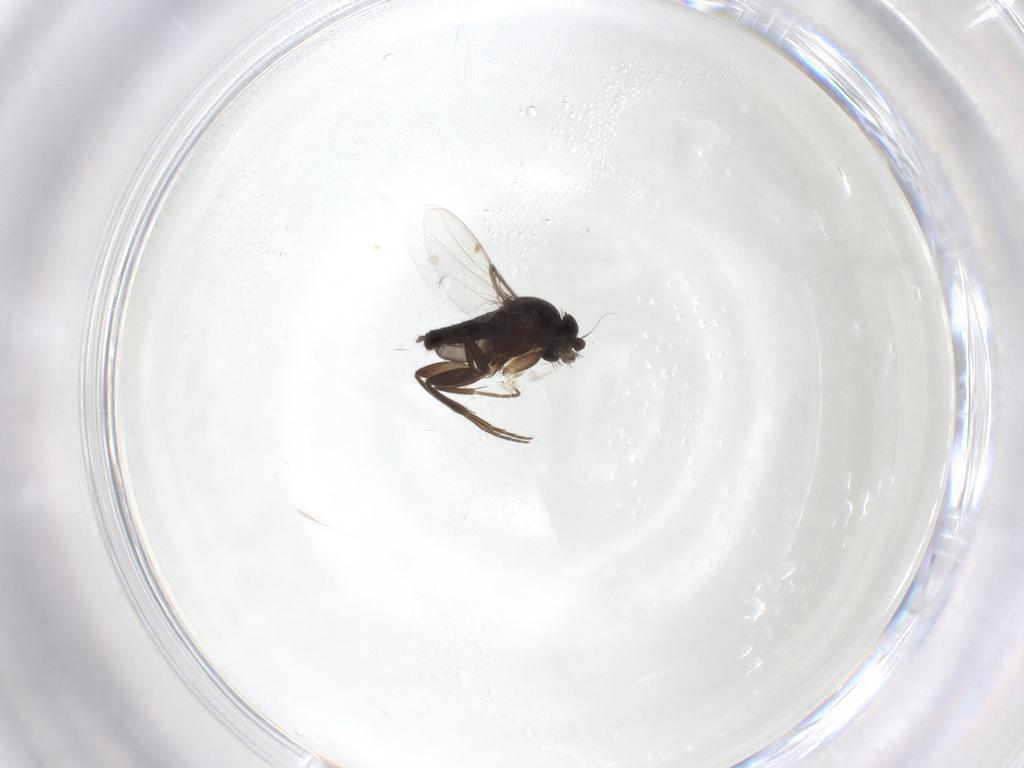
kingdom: Animalia
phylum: Arthropoda
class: Insecta
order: Diptera
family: Phoridae
